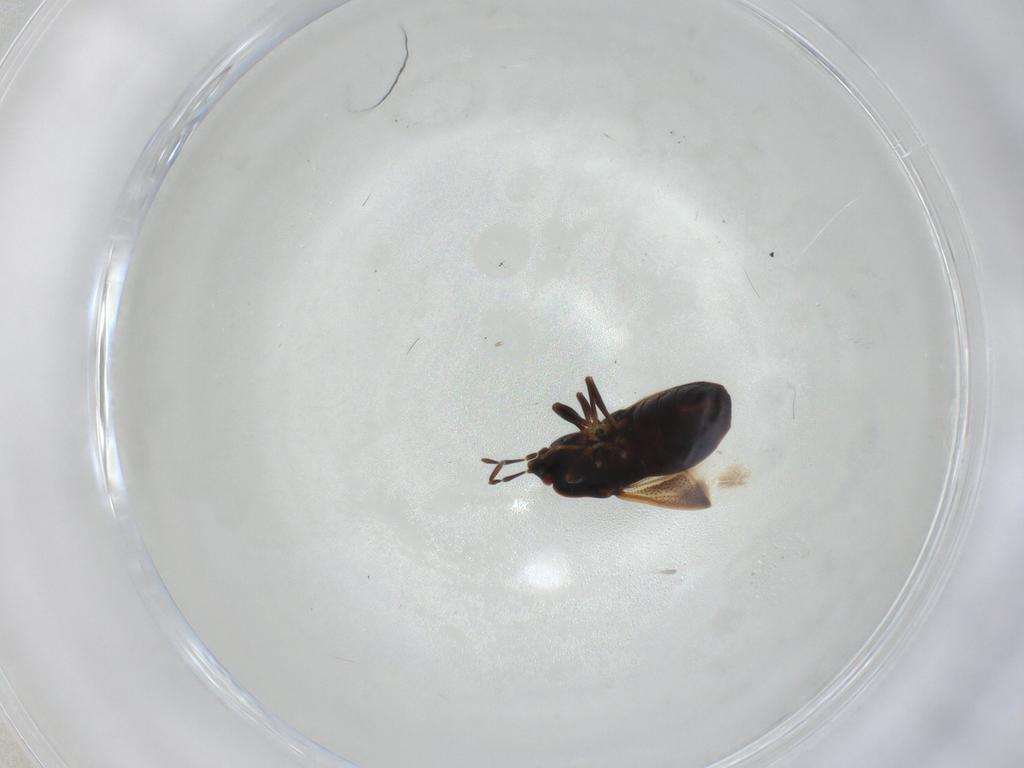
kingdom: Animalia
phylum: Arthropoda
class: Insecta
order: Hemiptera
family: Rhyparochromidae
